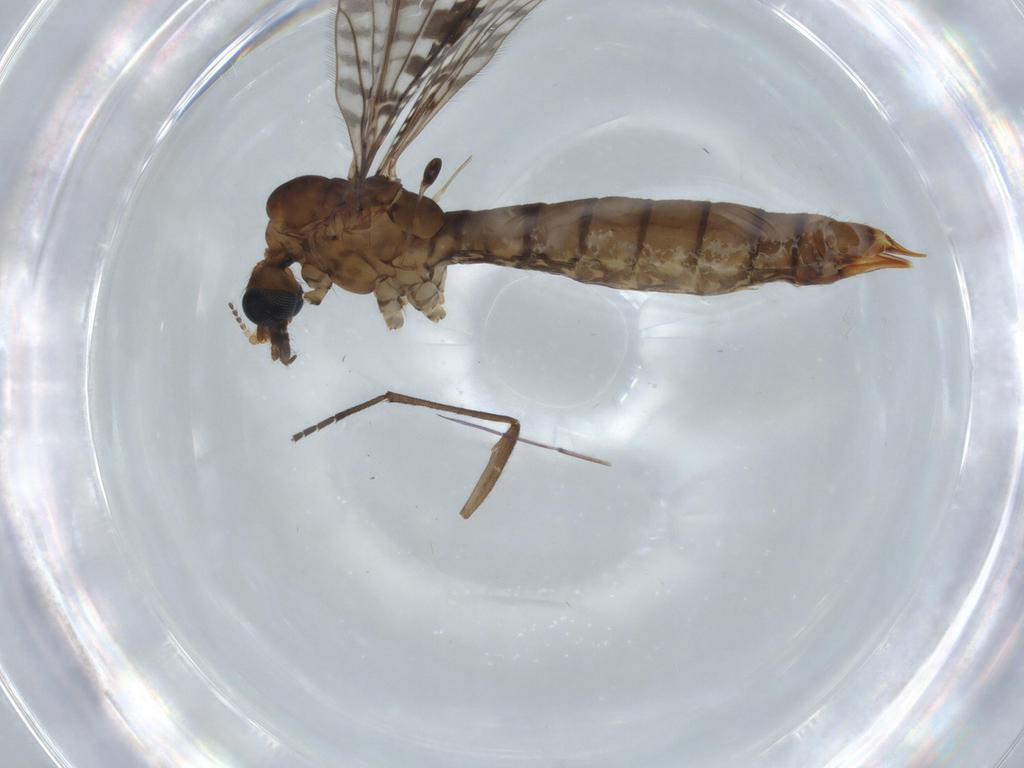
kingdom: Animalia
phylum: Arthropoda
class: Insecta
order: Diptera
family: Limoniidae
